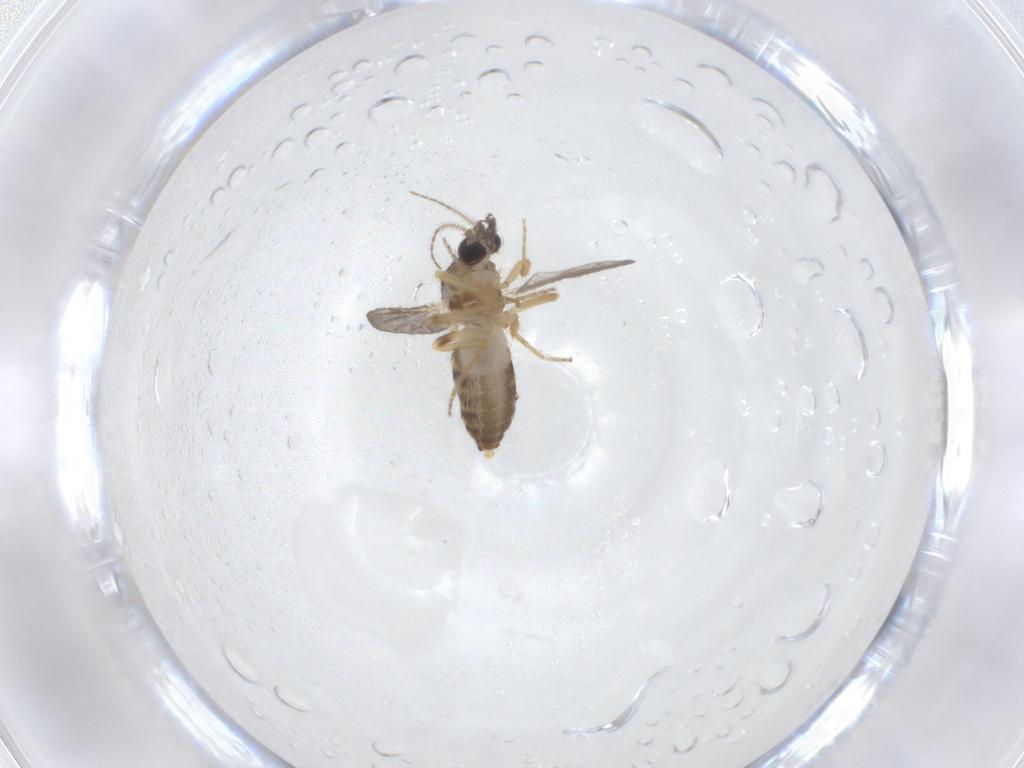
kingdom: Animalia
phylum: Arthropoda
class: Insecta
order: Diptera
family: Ceratopogonidae
